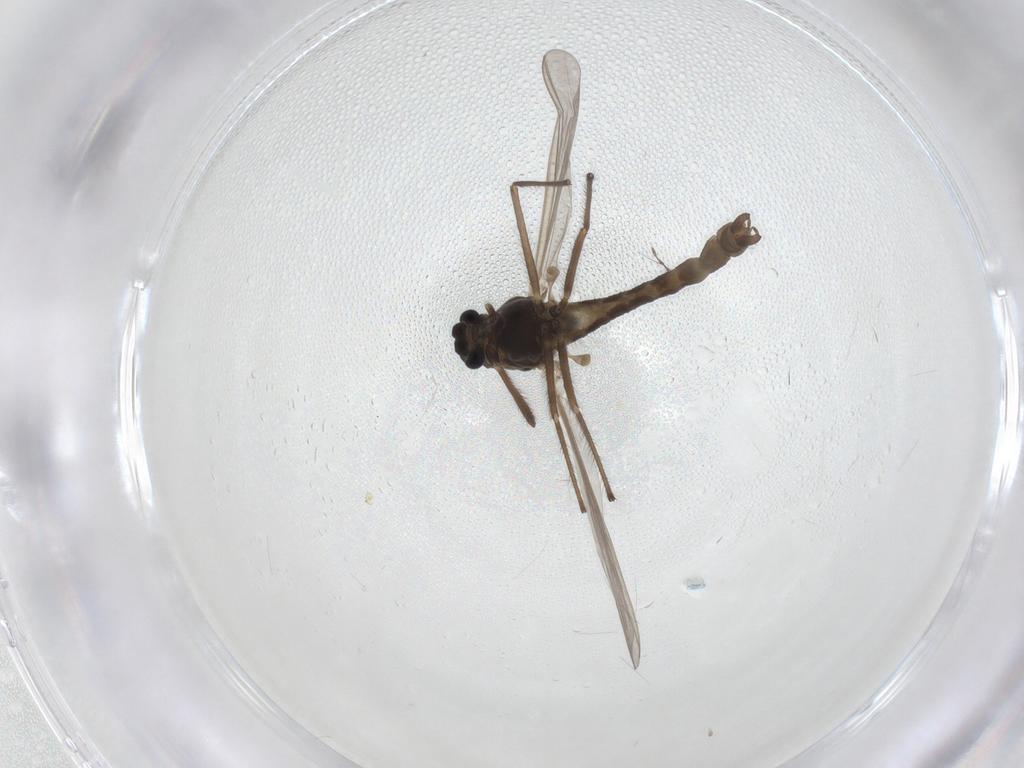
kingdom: Animalia
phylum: Arthropoda
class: Insecta
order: Diptera
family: Chironomidae
